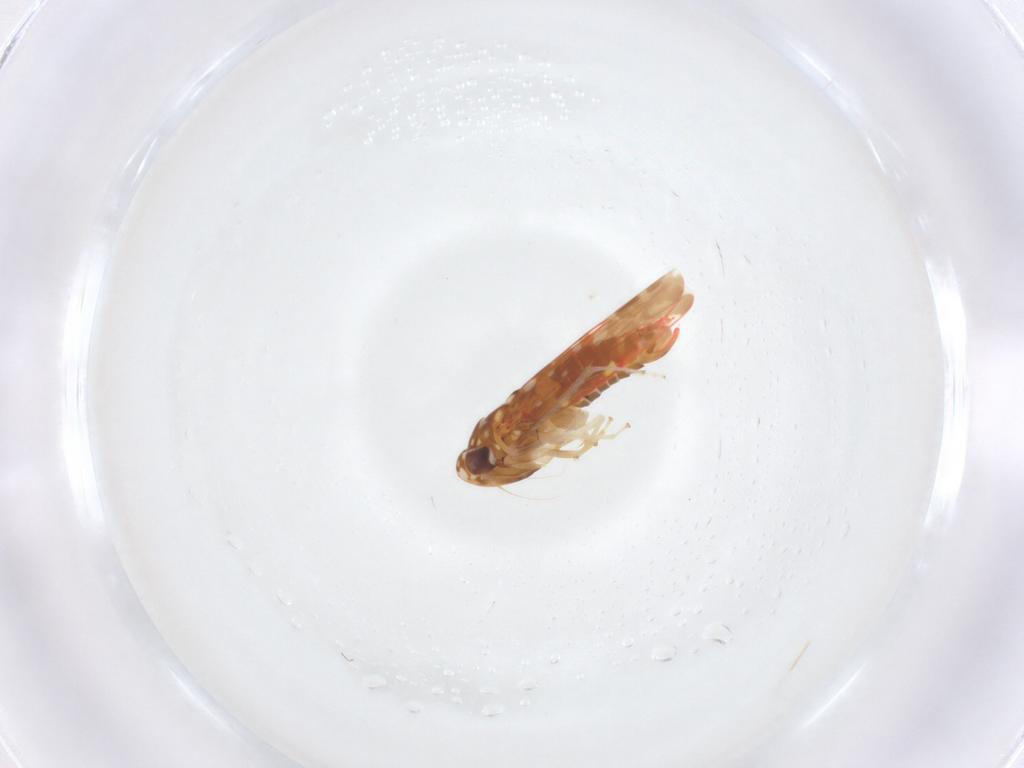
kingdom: Animalia
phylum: Arthropoda
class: Insecta
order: Hemiptera
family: Cicadellidae
